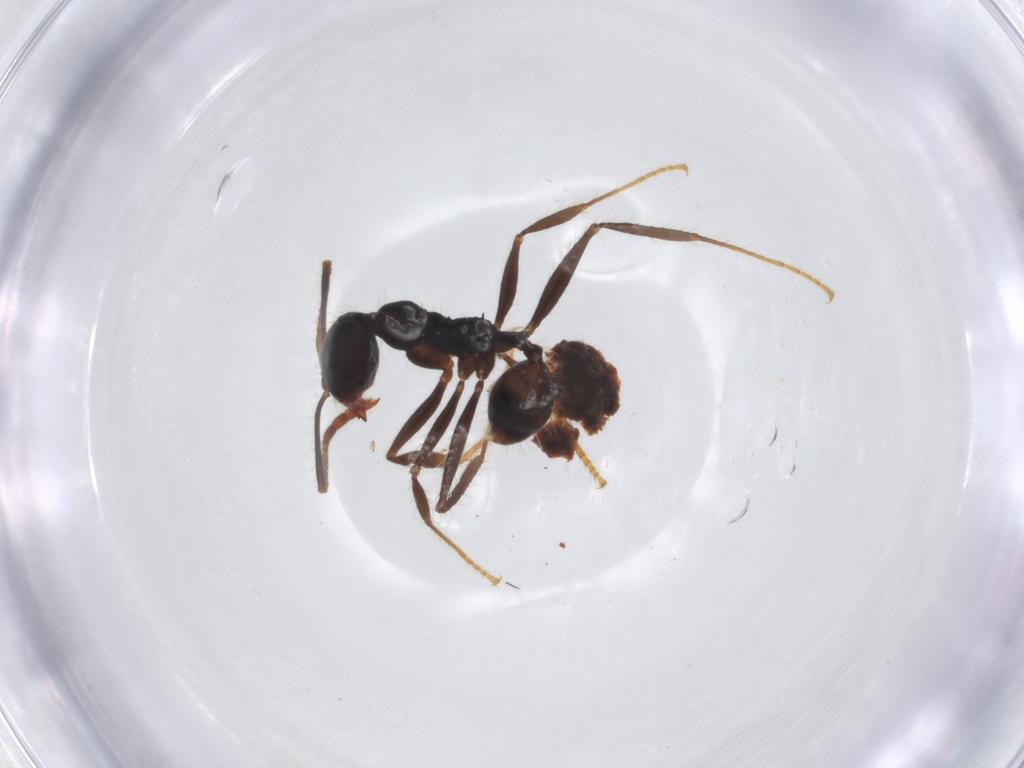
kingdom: Animalia
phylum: Arthropoda
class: Insecta
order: Hymenoptera
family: Formicidae
